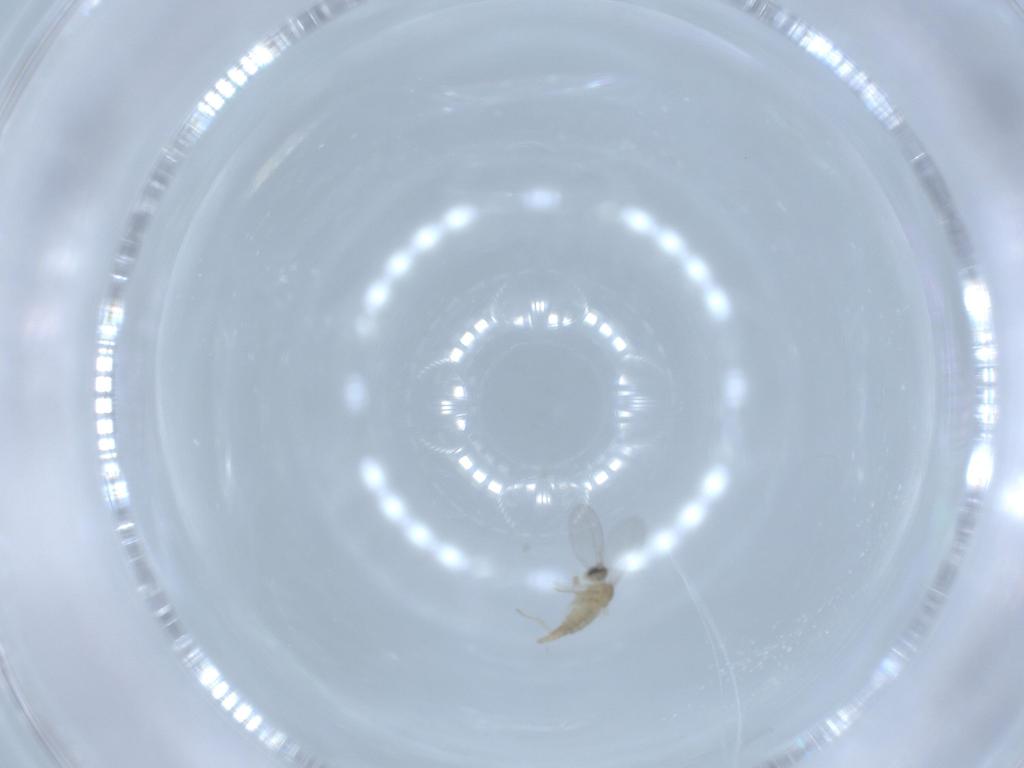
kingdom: Animalia
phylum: Arthropoda
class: Insecta
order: Diptera
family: Cecidomyiidae
